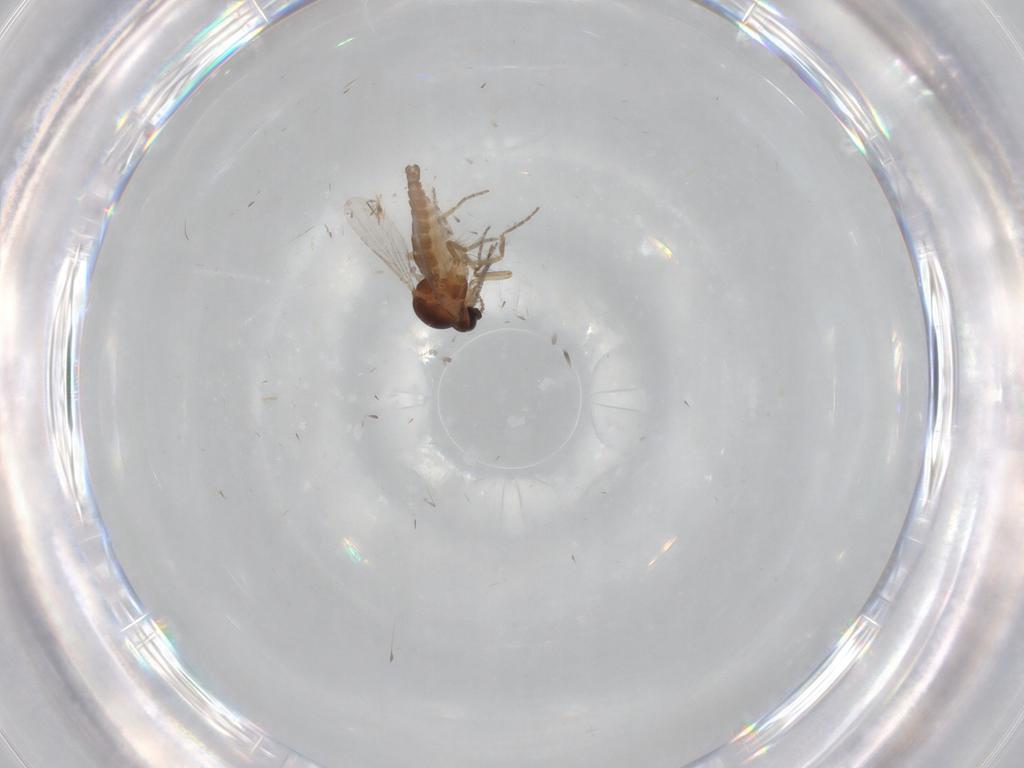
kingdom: Animalia
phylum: Arthropoda
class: Insecta
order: Diptera
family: Ceratopogonidae
